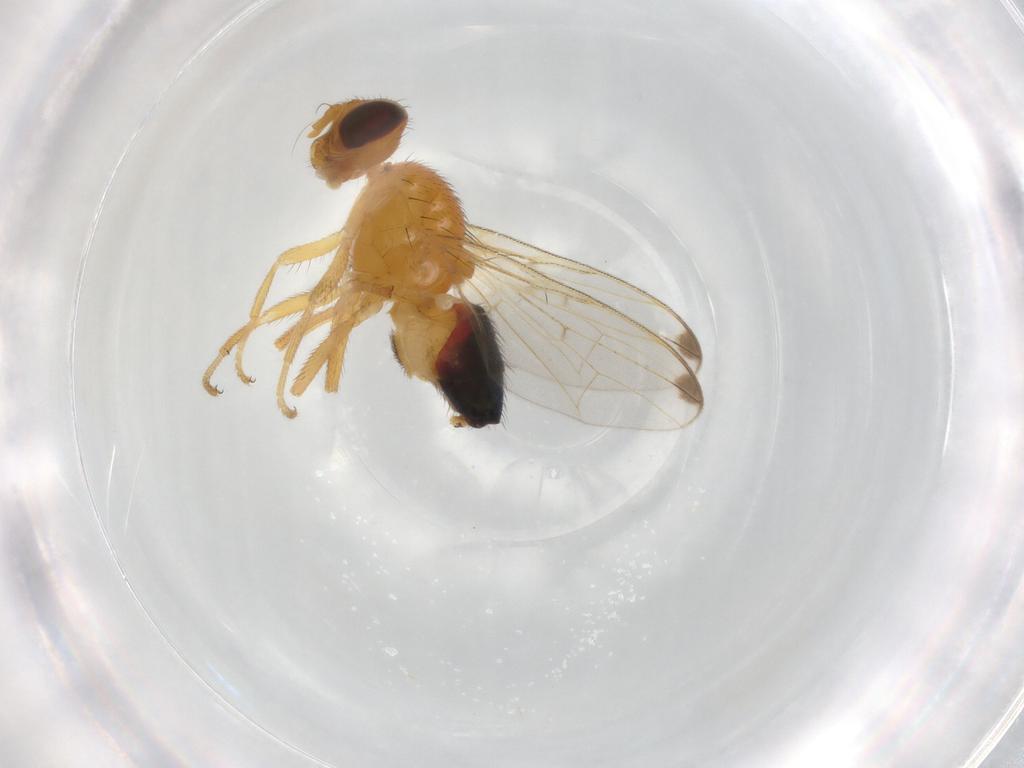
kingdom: Animalia
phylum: Arthropoda
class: Insecta
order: Diptera
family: Platystomatidae
